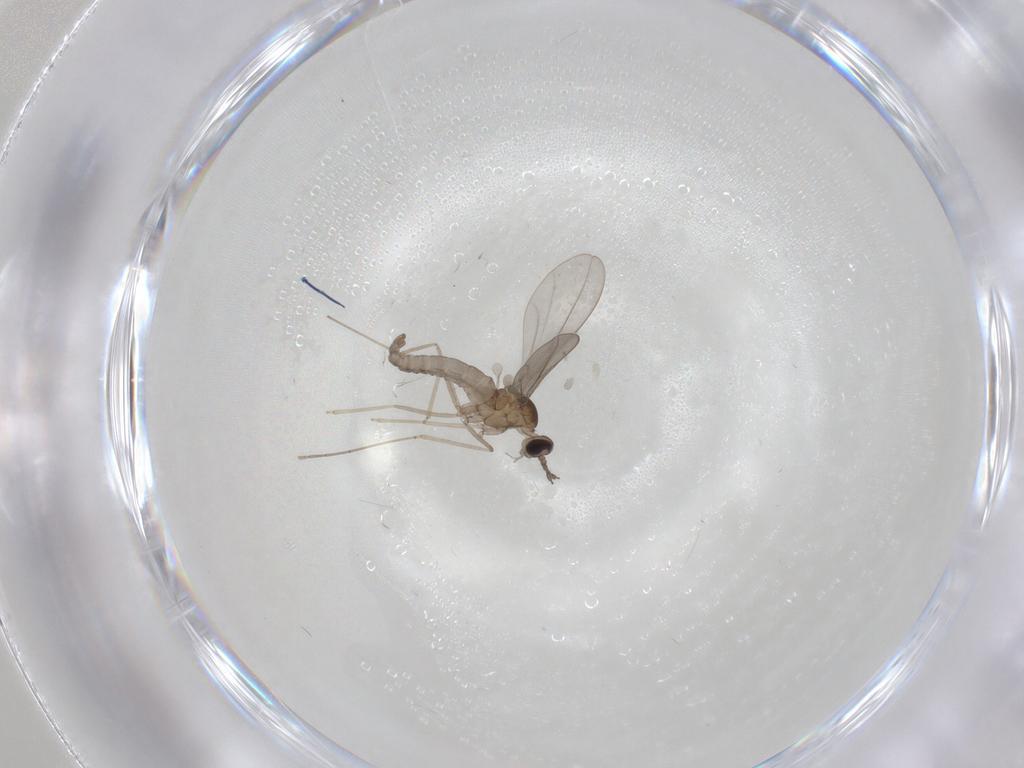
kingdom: Animalia
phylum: Arthropoda
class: Insecta
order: Diptera
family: Cecidomyiidae
